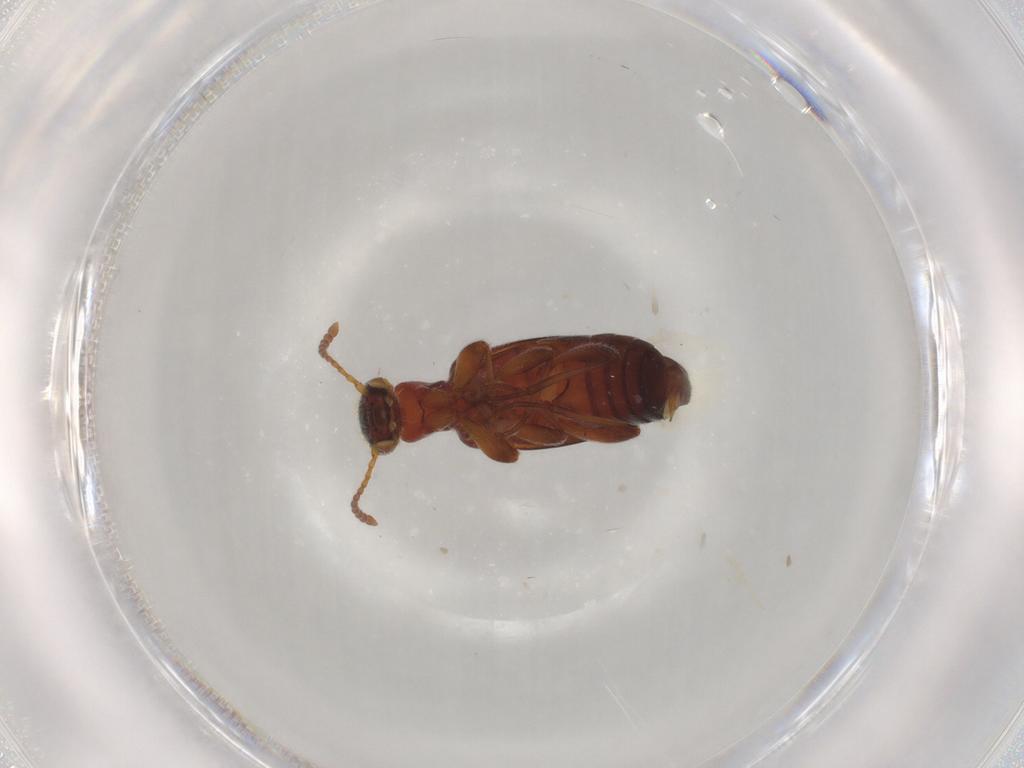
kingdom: Animalia
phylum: Arthropoda
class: Insecta
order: Coleoptera
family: Anthicidae
